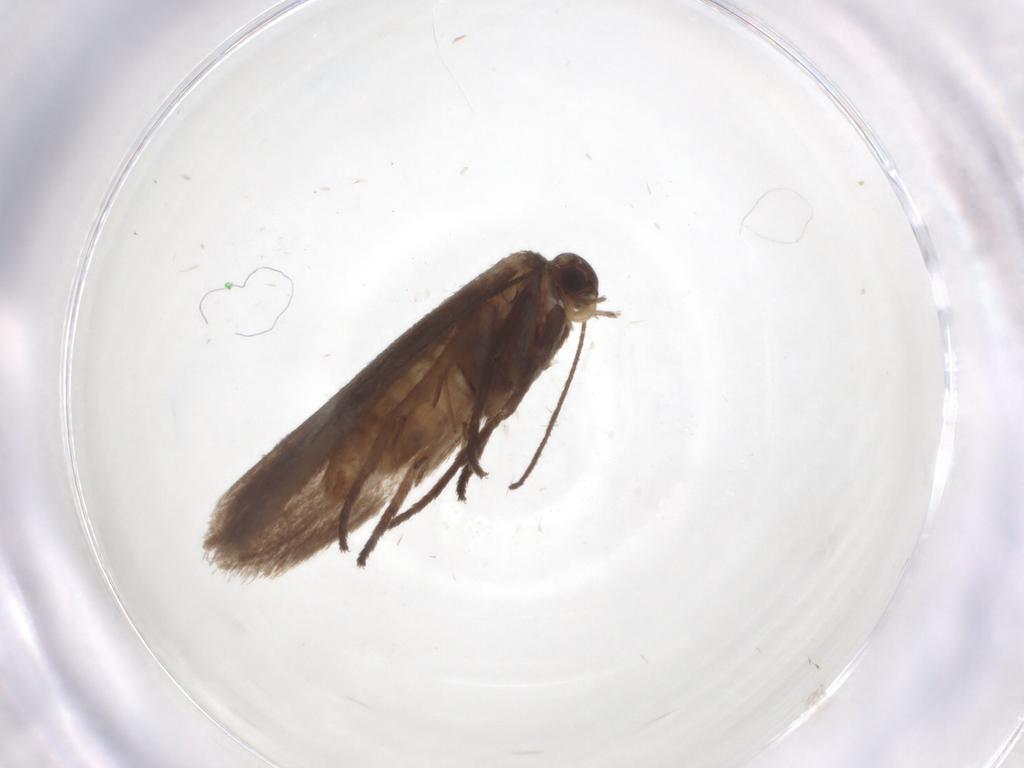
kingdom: Animalia
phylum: Arthropoda
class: Insecta
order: Lepidoptera
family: Limacodidae
